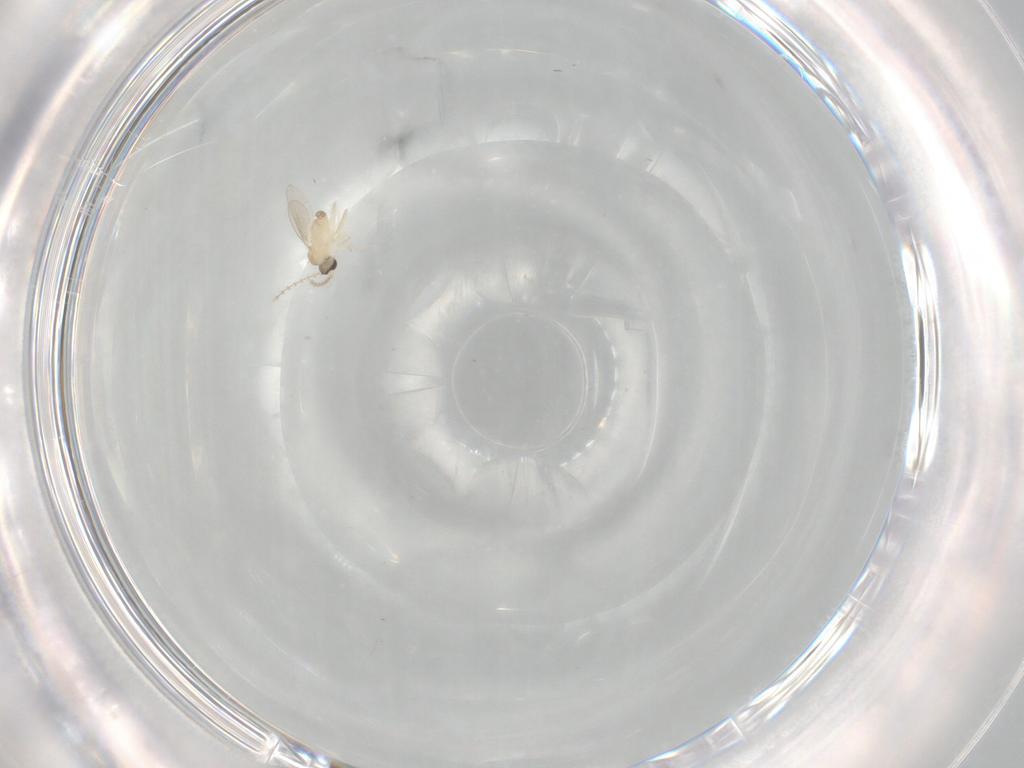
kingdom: Animalia
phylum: Arthropoda
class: Insecta
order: Diptera
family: Cecidomyiidae
